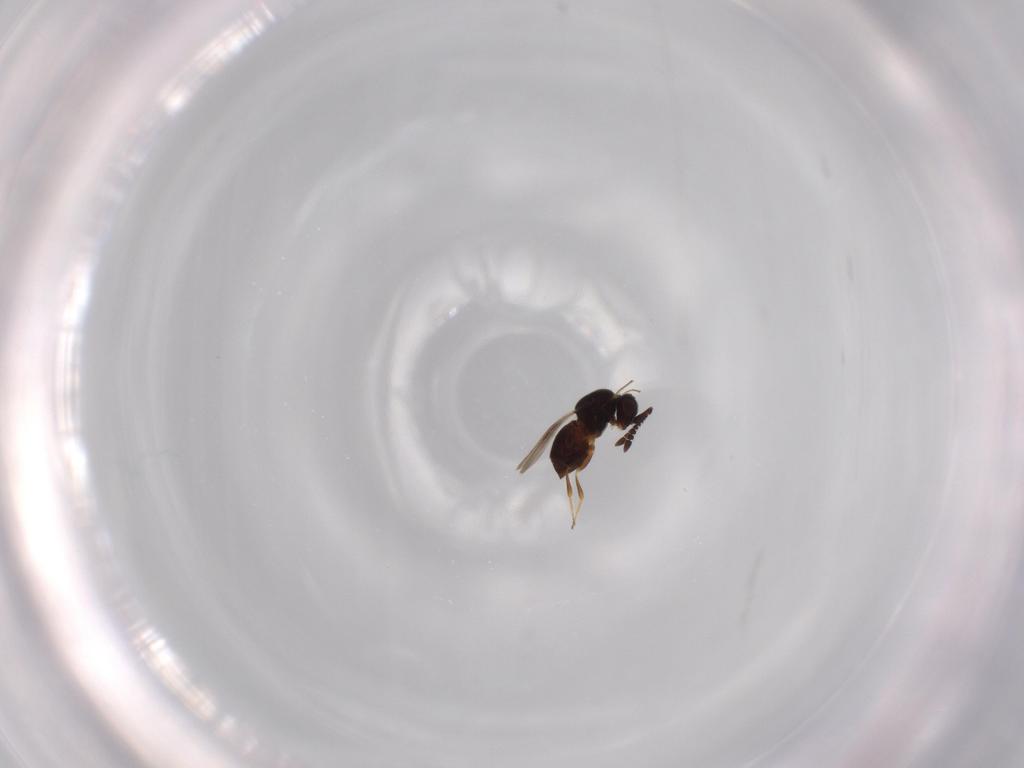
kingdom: Animalia
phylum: Arthropoda
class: Insecta
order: Hymenoptera
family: Ceraphronidae
